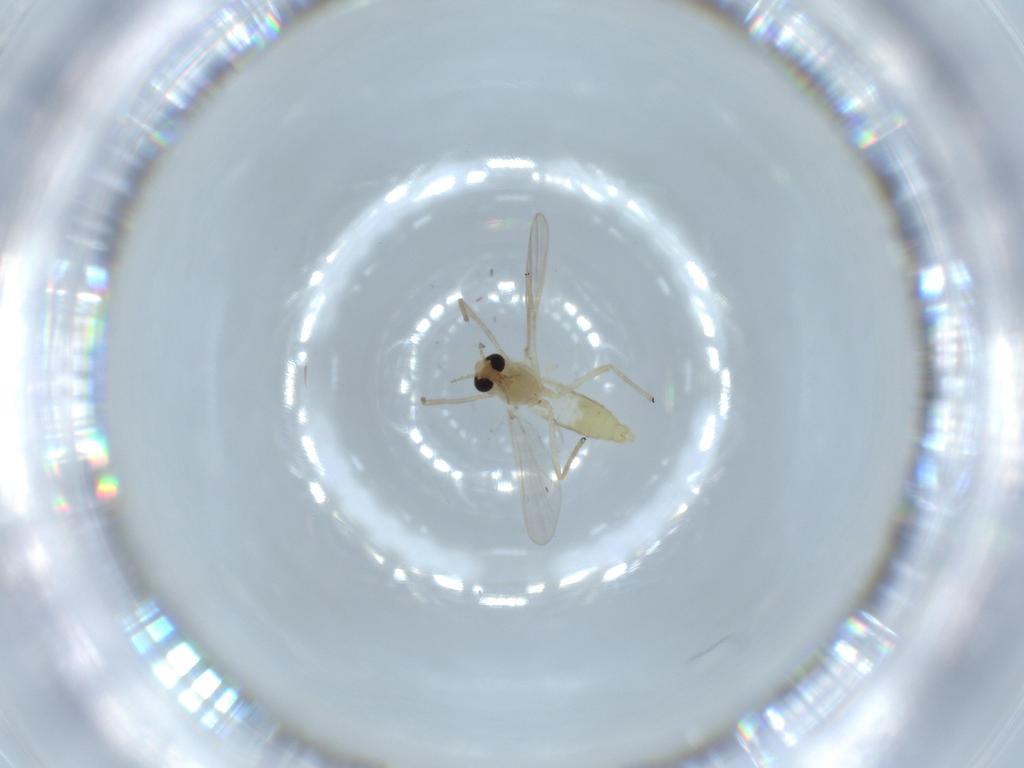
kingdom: Animalia
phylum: Arthropoda
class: Insecta
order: Diptera
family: Chironomidae
